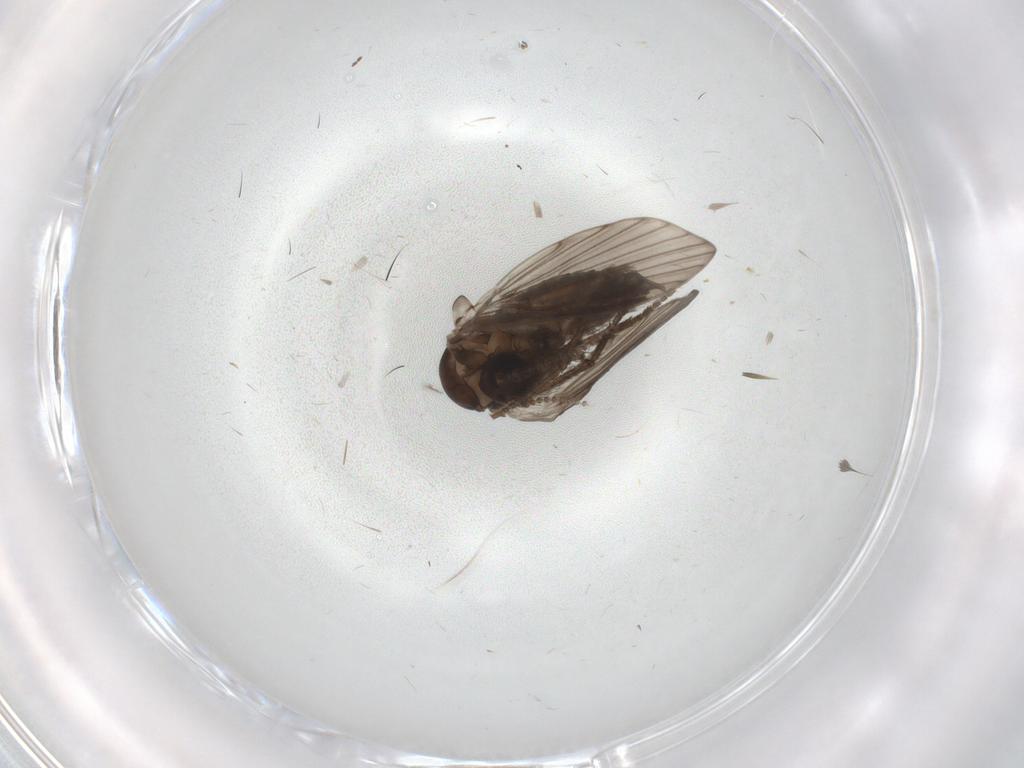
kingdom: Animalia
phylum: Arthropoda
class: Insecta
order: Diptera
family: Psychodidae
